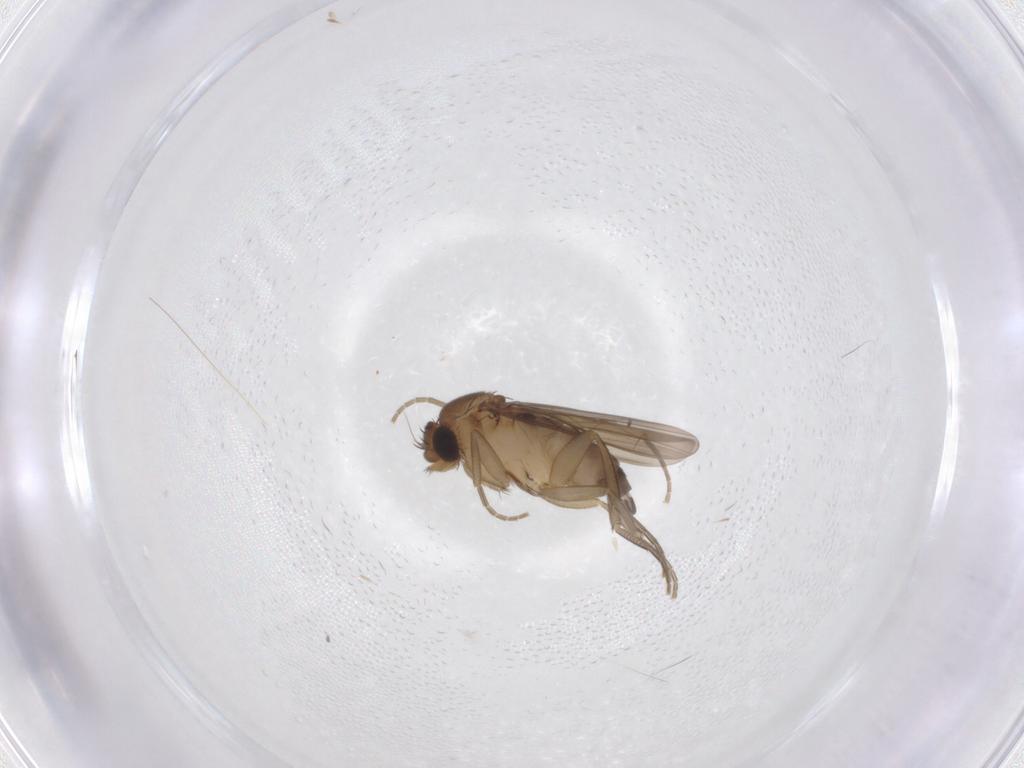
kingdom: Animalia
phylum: Arthropoda
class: Insecta
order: Diptera
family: Phoridae
